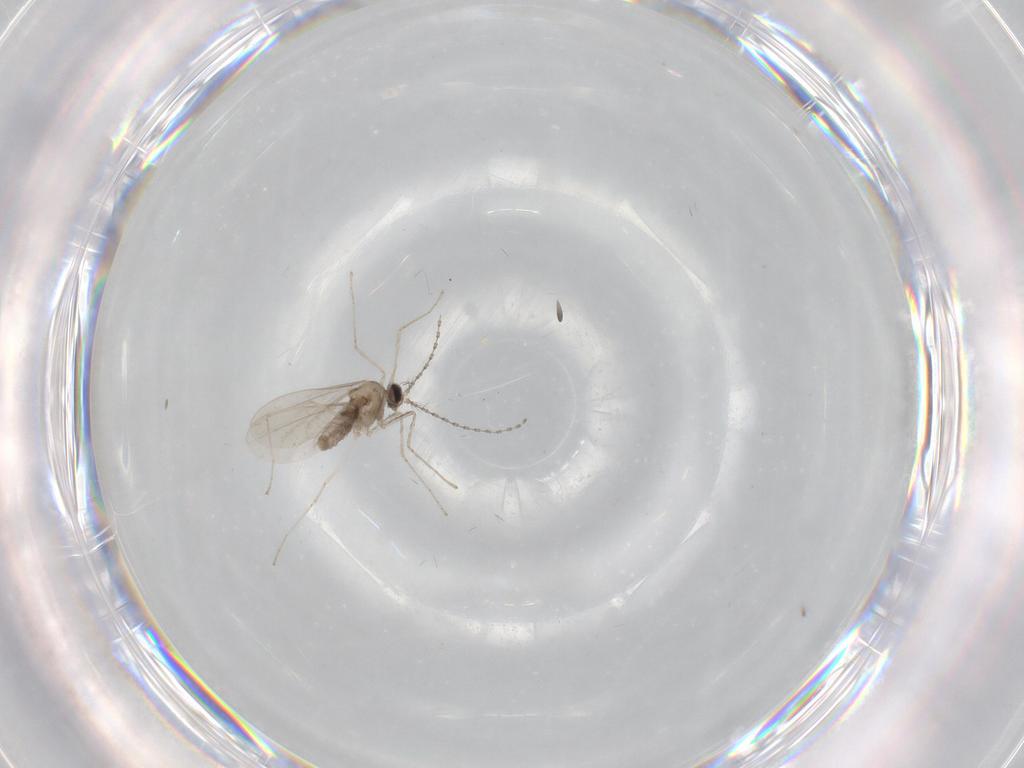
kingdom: Animalia
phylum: Arthropoda
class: Insecta
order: Diptera
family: Cecidomyiidae
